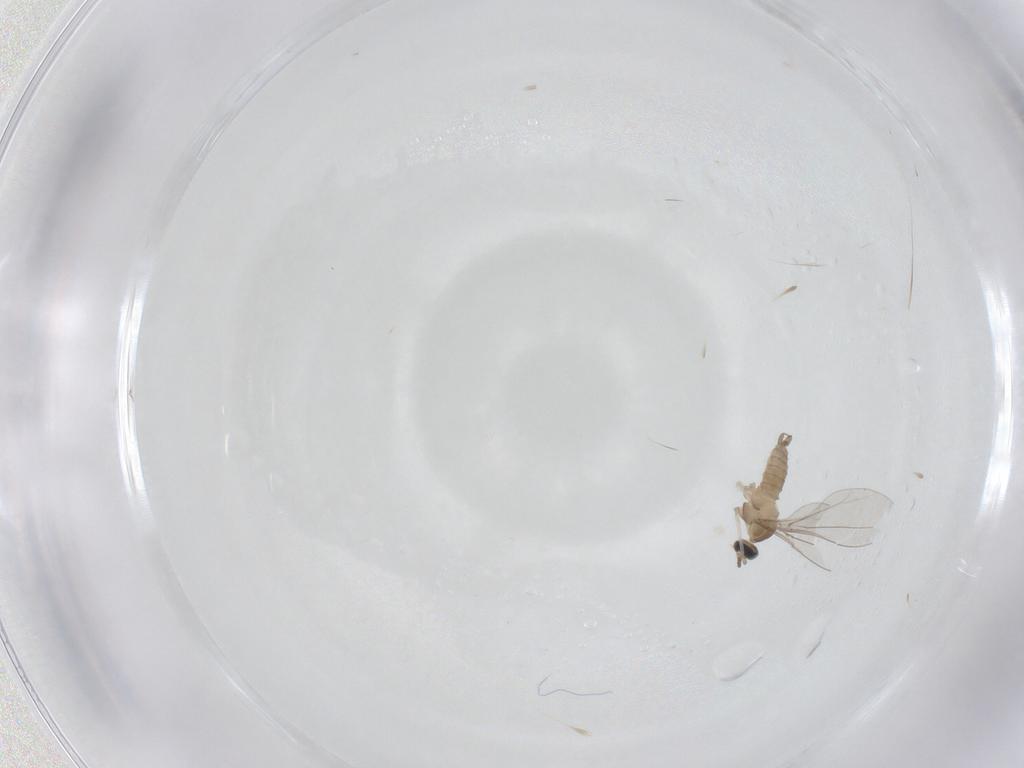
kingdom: Animalia
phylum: Arthropoda
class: Insecta
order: Diptera
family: Cecidomyiidae
